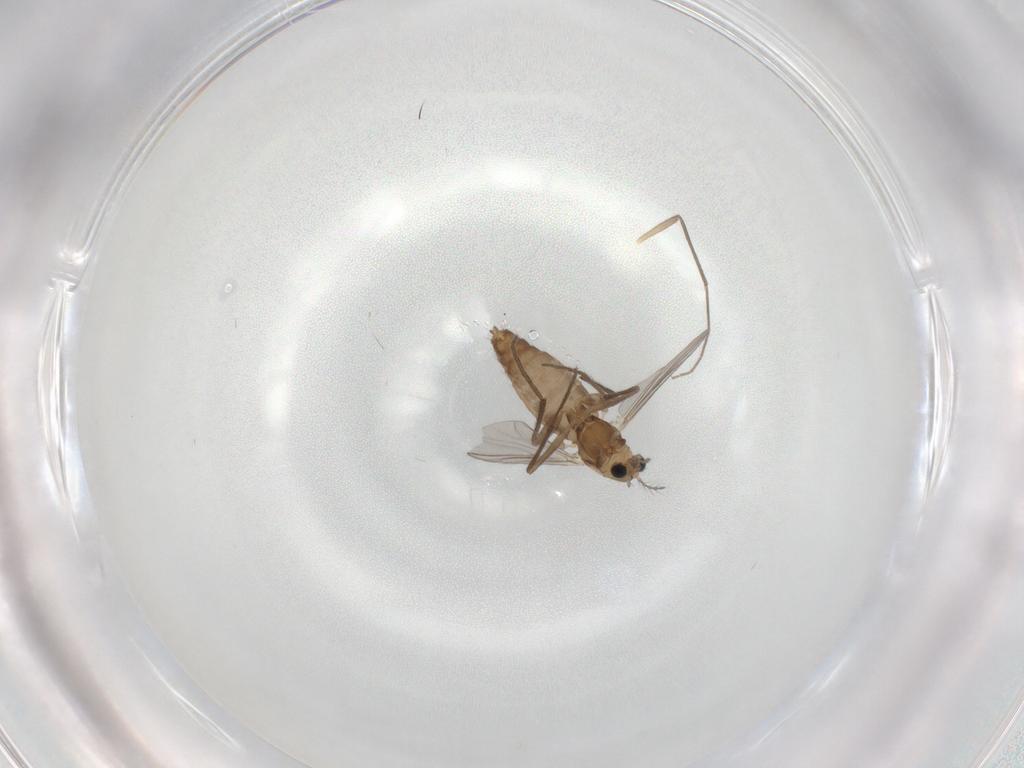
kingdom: Animalia
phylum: Arthropoda
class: Insecta
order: Diptera
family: Chironomidae
